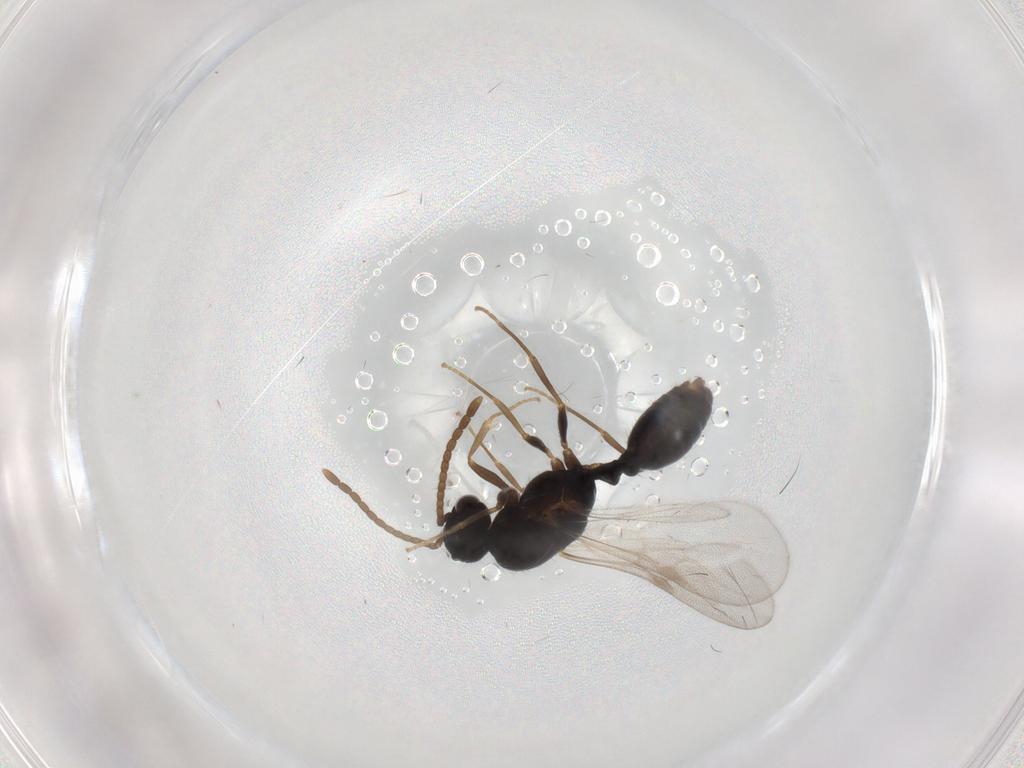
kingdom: Animalia
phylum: Arthropoda
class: Insecta
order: Hymenoptera
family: Formicidae
